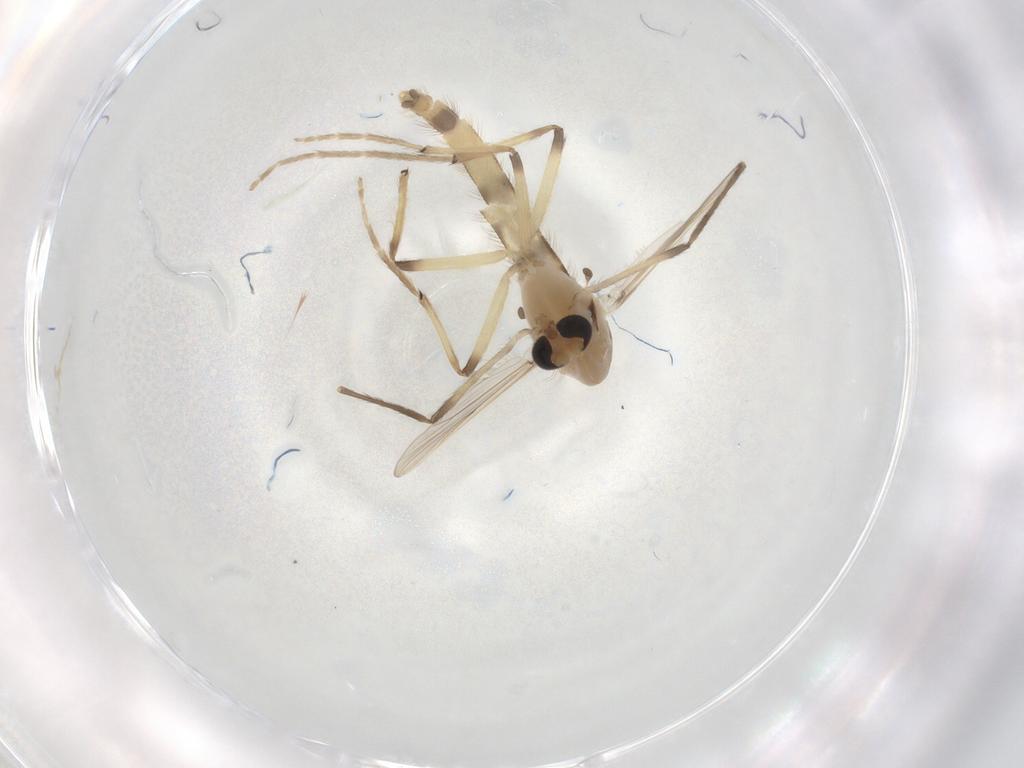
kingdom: Animalia
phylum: Arthropoda
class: Insecta
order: Diptera
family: Chironomidae
